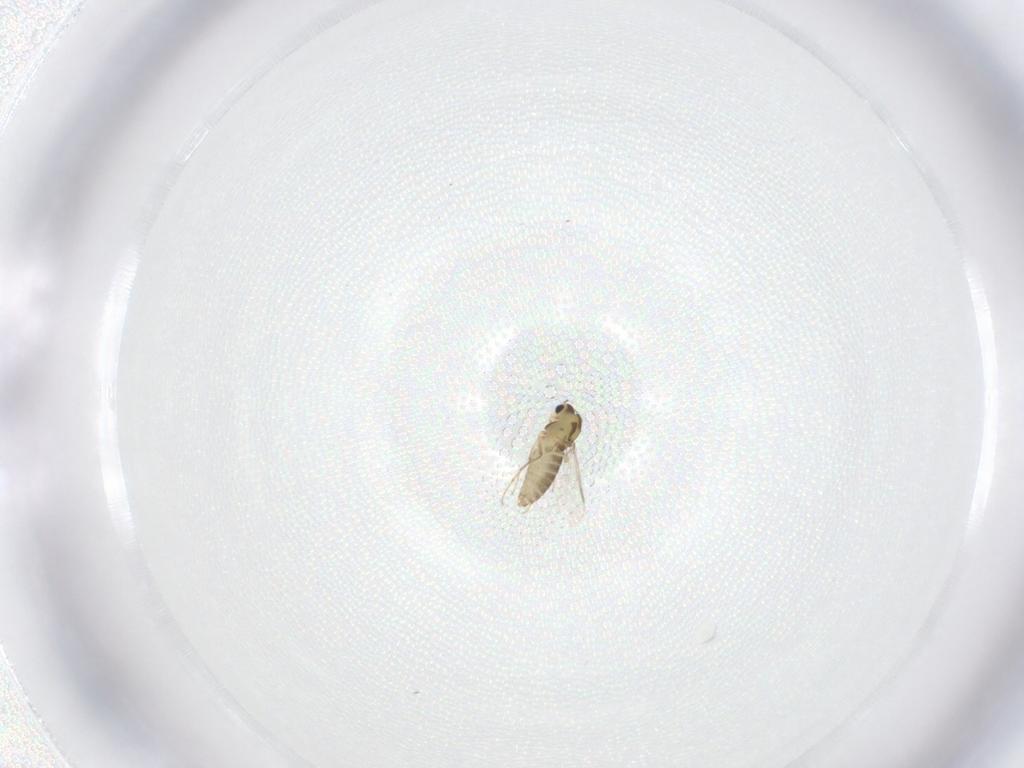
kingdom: Animalia
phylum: Arthropoda
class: Insecta
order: Diptera
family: Chironomidae
